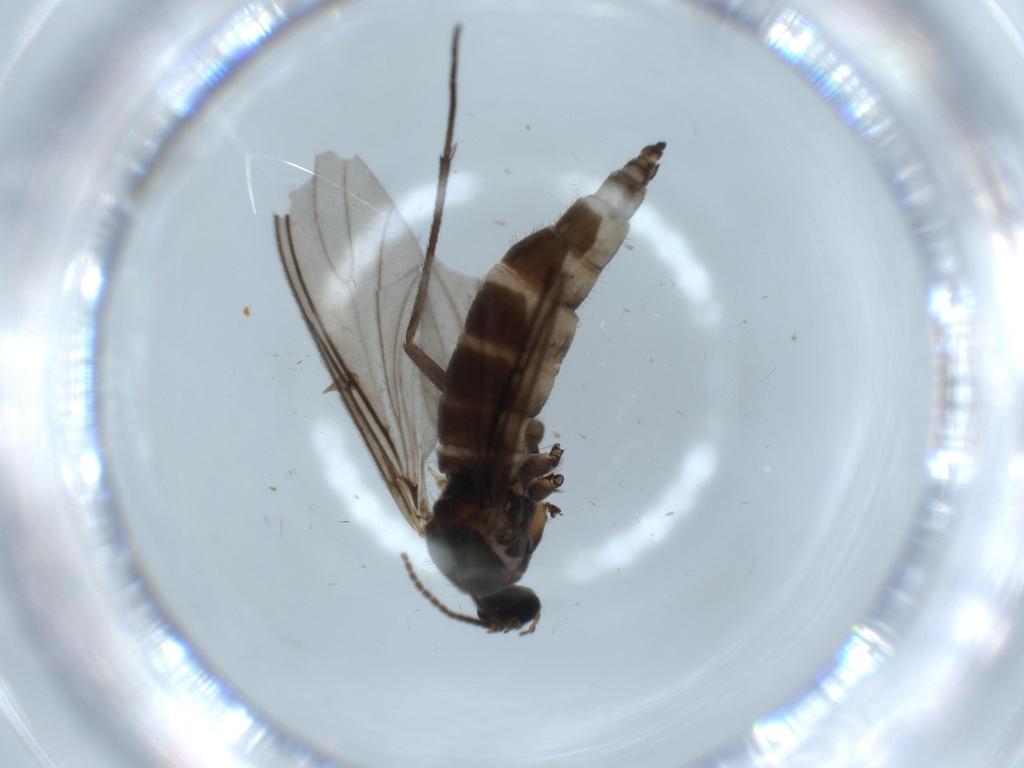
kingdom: Animalia
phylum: Arthropoda
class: Insecta
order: Diptera
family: Sciaridae
